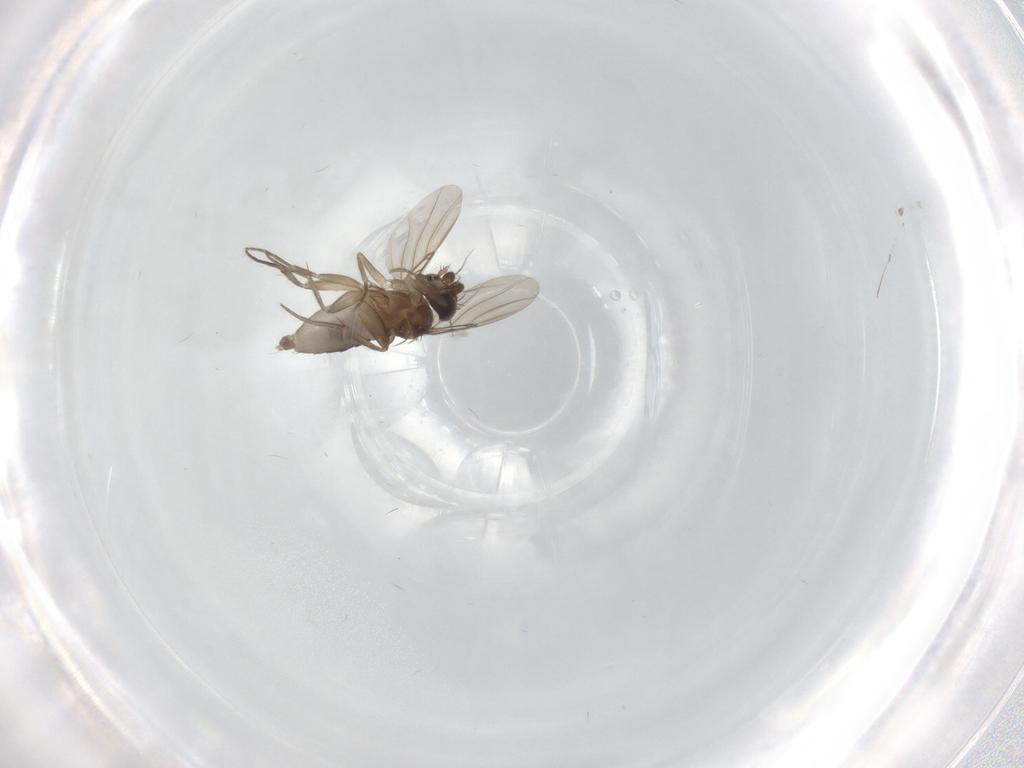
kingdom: Animalia
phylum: Arthropoda
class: Insecta
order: Diptera
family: Phoridae
